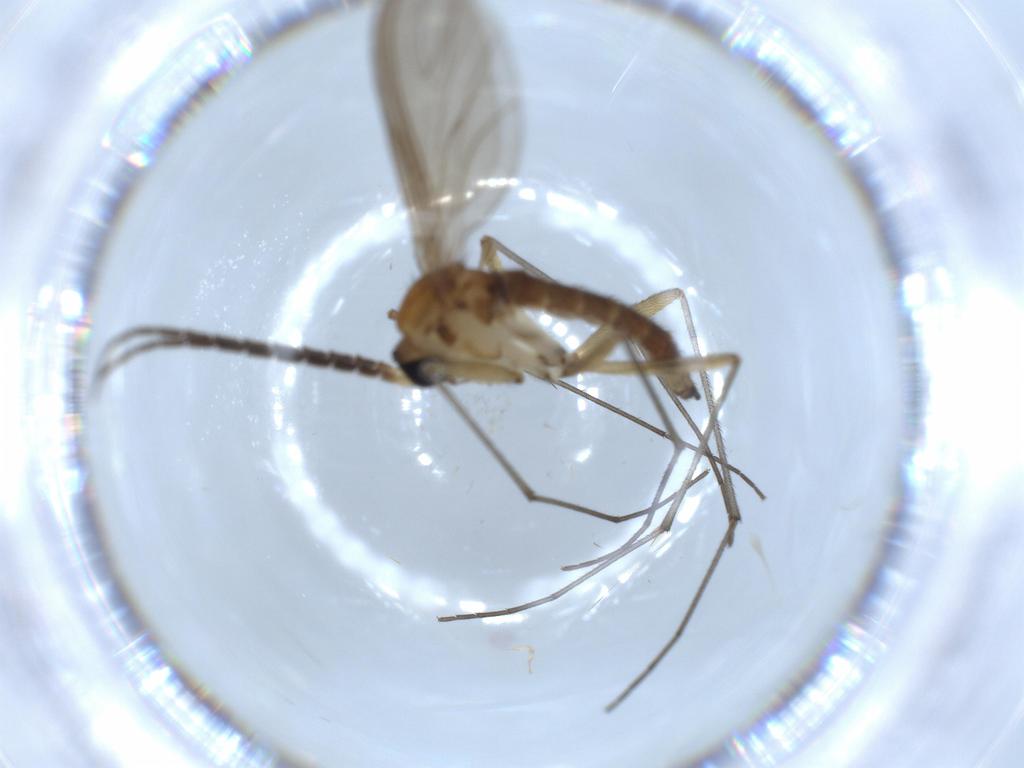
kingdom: Animalia
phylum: Arthropoda
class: Insecta
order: Diptera
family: Sciaridae
